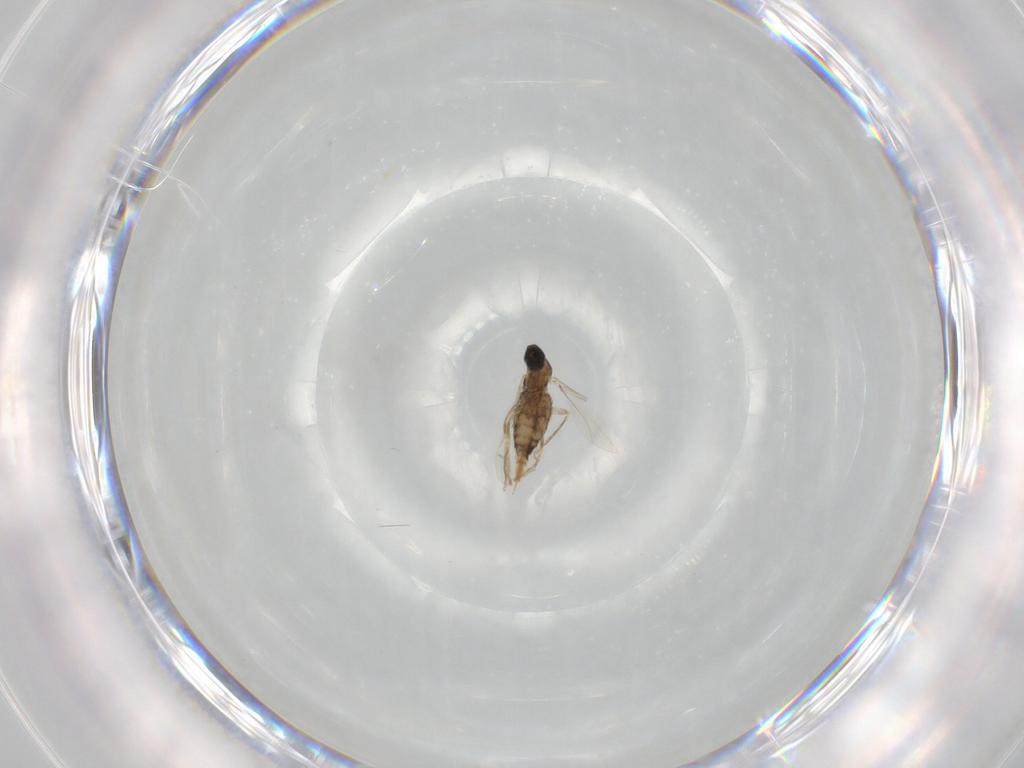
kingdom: Animalia
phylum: Arthropoda
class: Insecta
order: Diptera
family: Cecidomyiidae
